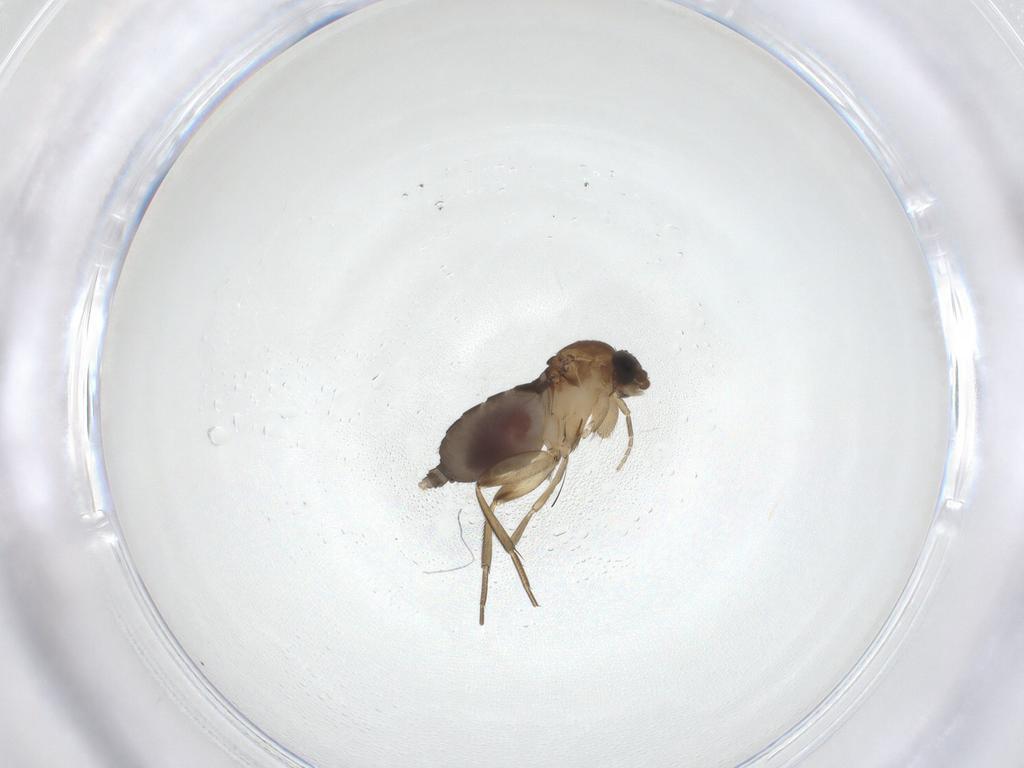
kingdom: Animalia
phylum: Arthropoda
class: Insecta
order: Diptera
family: Phoridae
